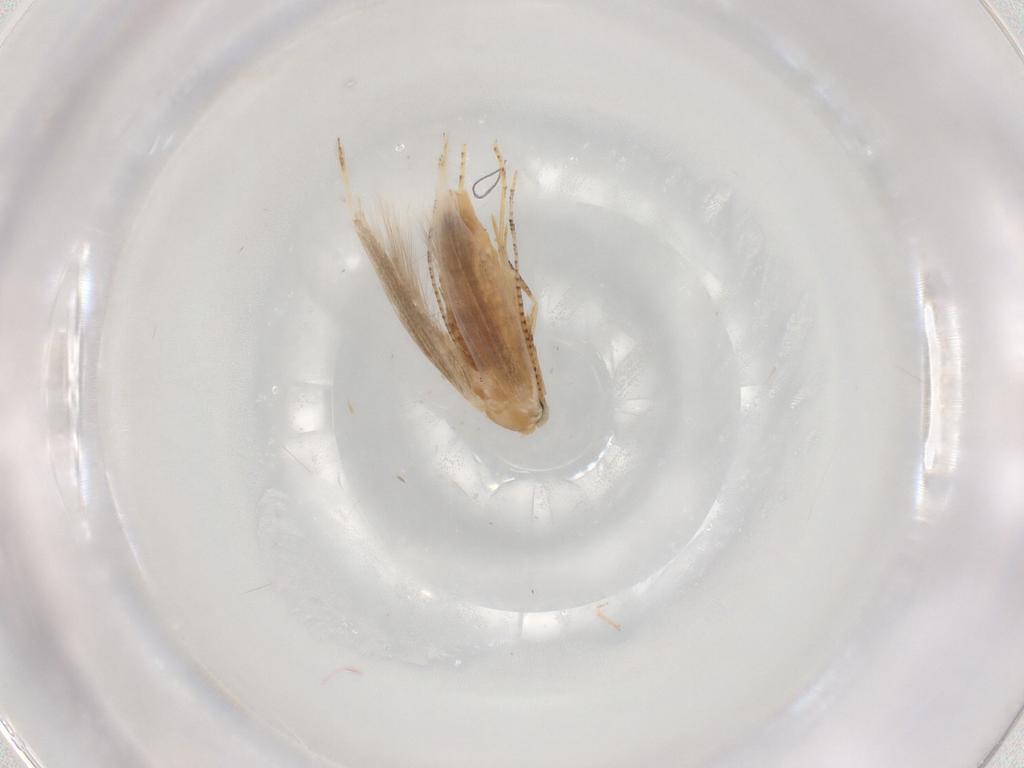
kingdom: Animalia
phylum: Arthropoda
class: Insecta
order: Lepidoptera
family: Bucculatricidae
